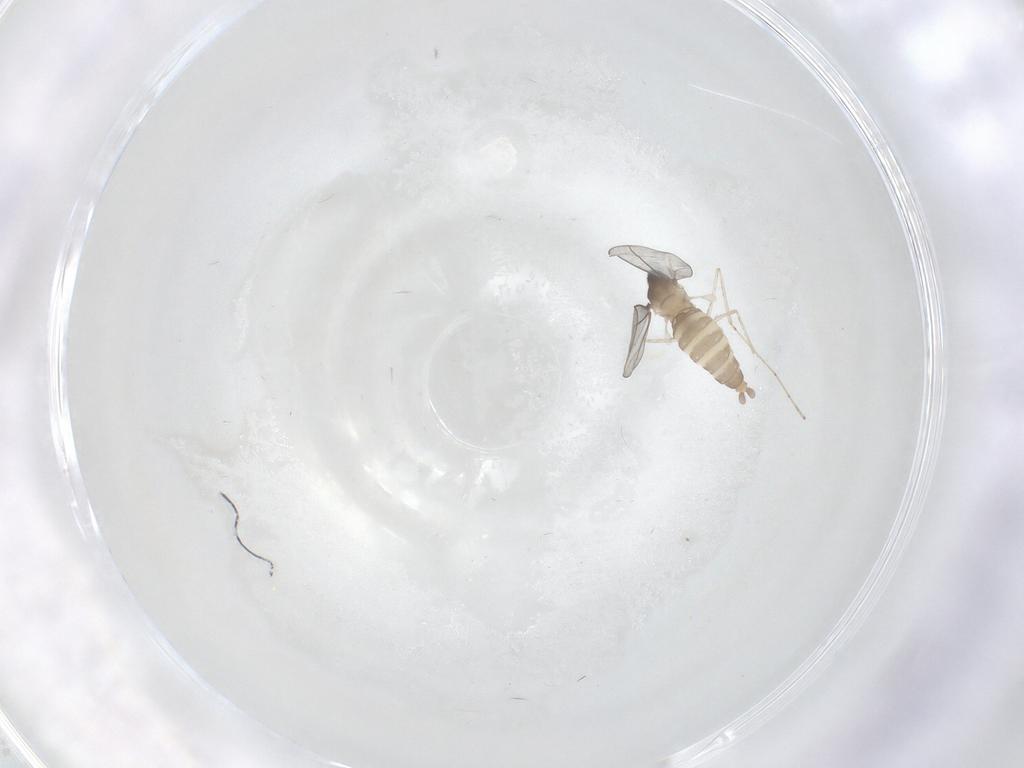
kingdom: Animalia
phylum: Arthropoda
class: Insecta
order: Diptera
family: Cecidomyiidae
